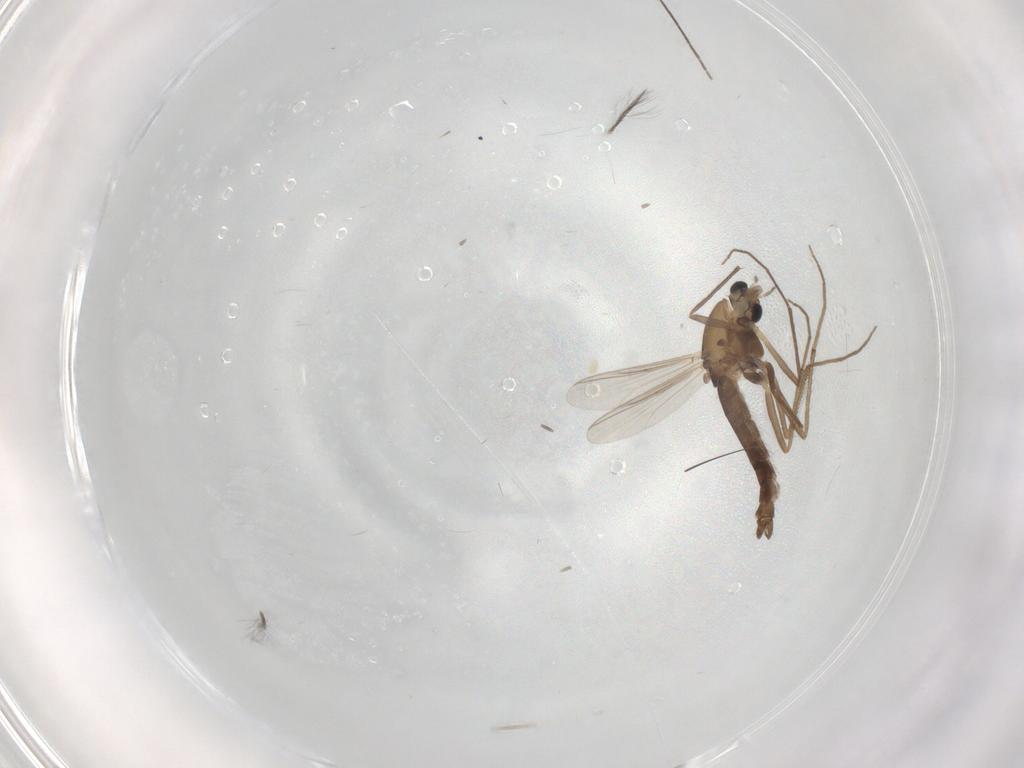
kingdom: Animalia
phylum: Arthropoda
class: Insecta
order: Diptera
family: Chironomidae
